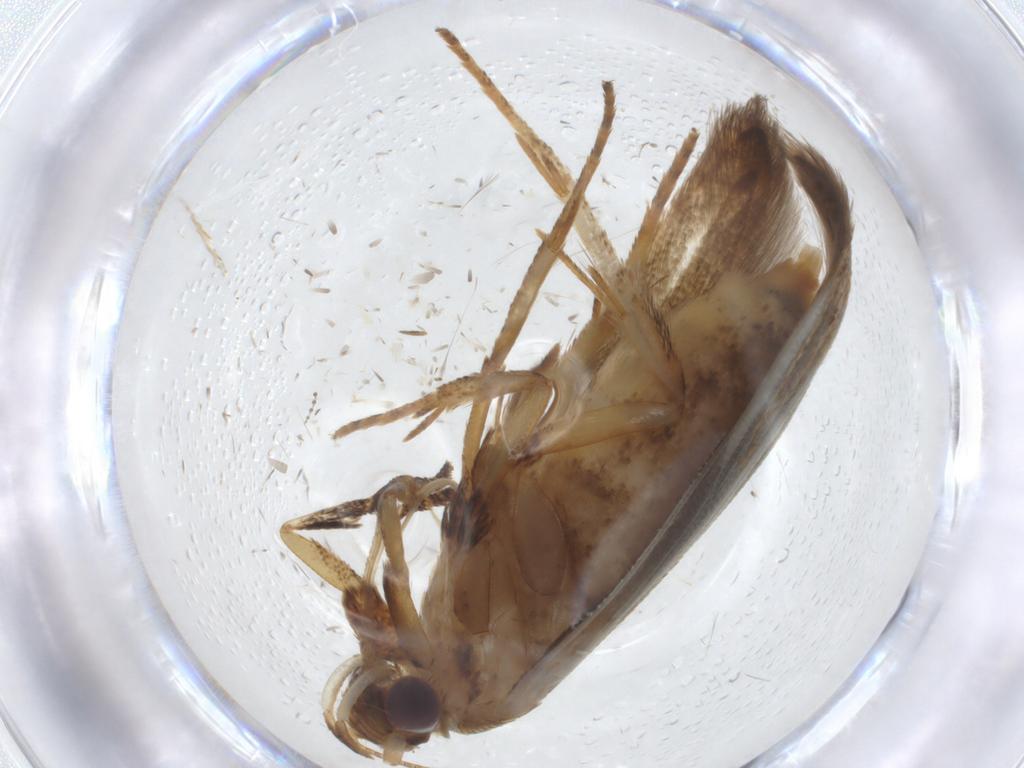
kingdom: Animalia
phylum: Arthropoda
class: Insecta
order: Lepidoptera
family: Coleophoridae
